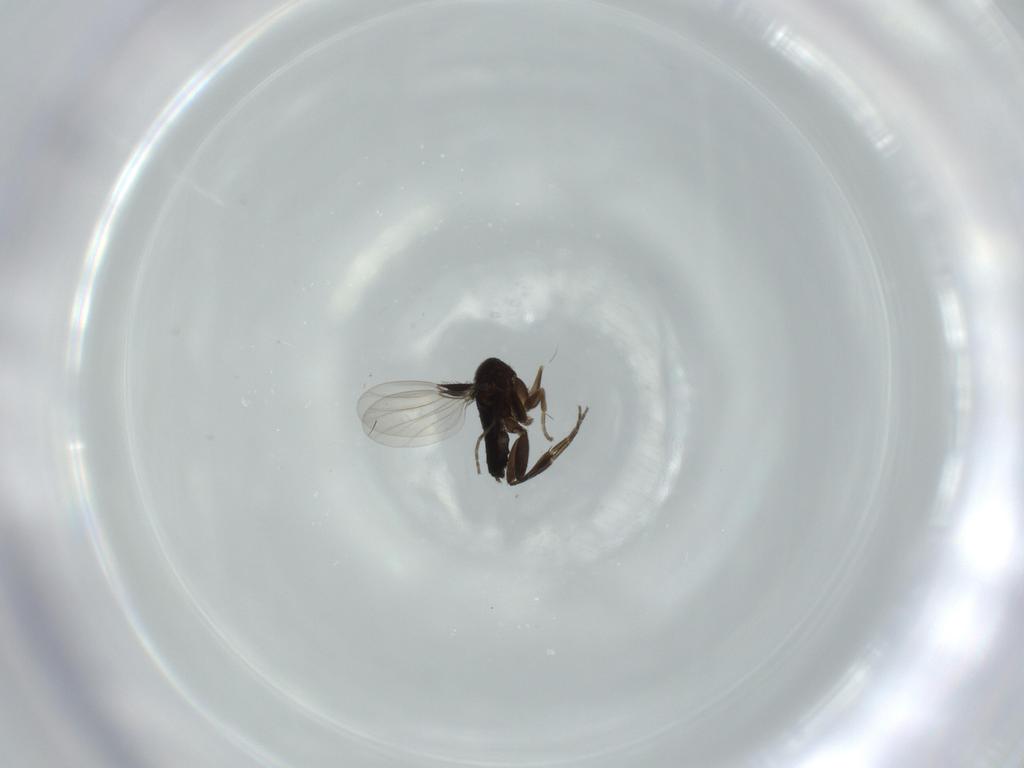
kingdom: Animalia
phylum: Arthropoda
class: Insecta
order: Diptera
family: Phoridae
